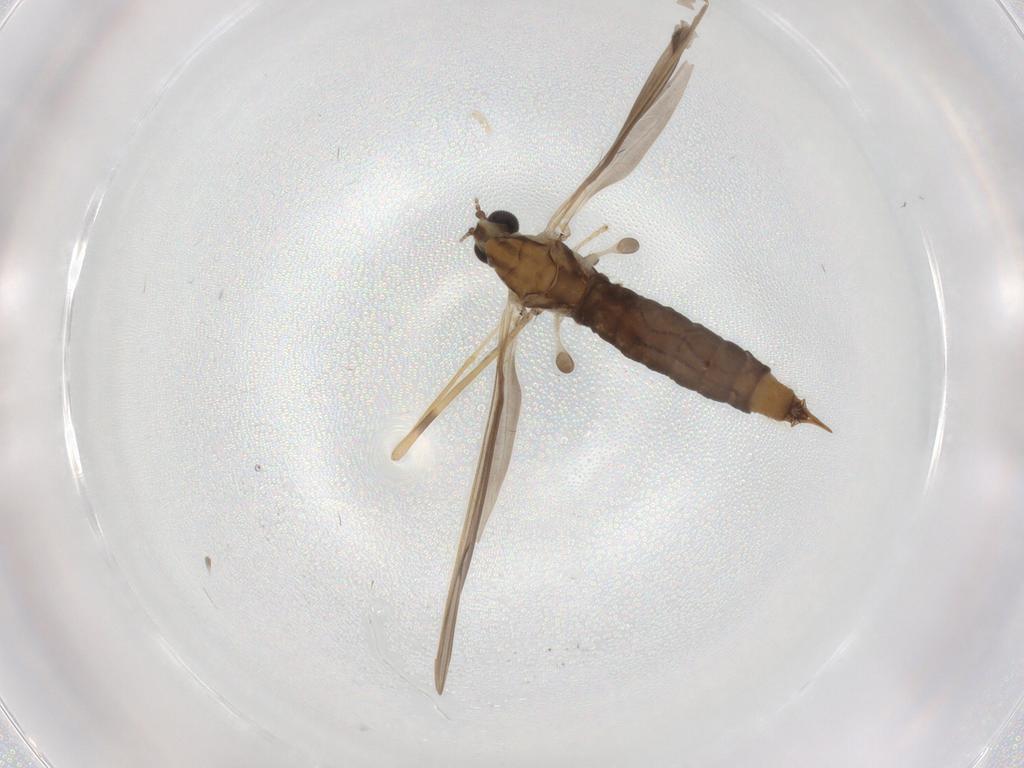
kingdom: Animalia
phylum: Arthropoda
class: Insecta
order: Diptera
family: Limoniidae
